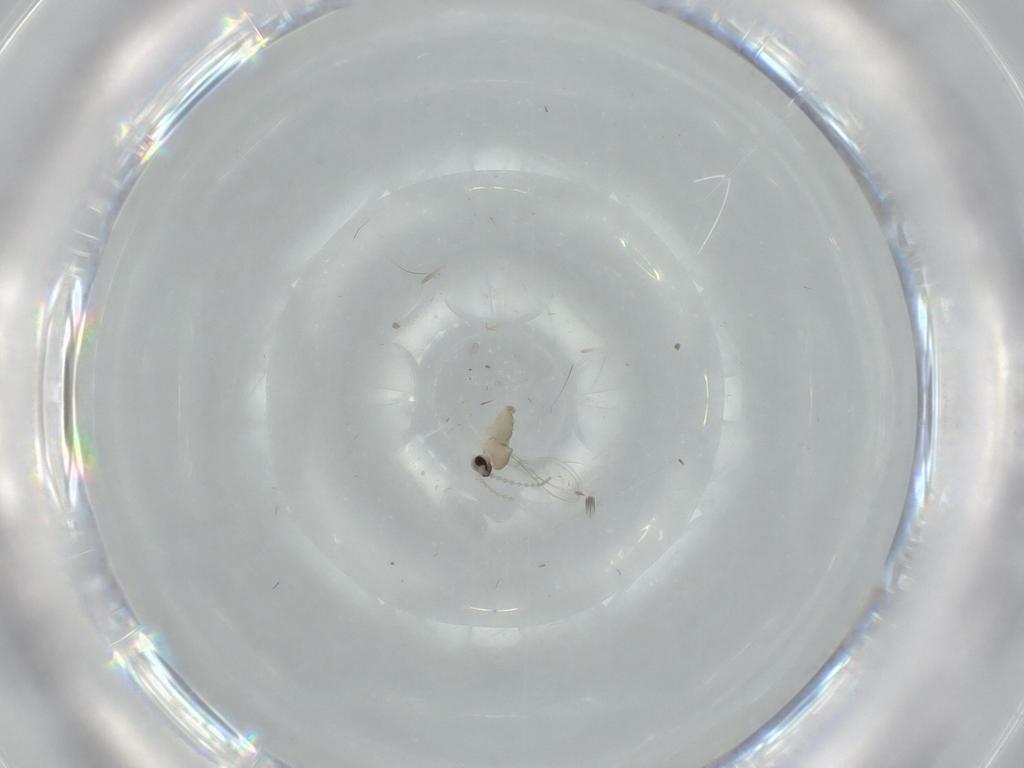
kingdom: Animalia
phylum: Arthropoda
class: Insecta
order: Diptera
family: Cecidomyiidae
